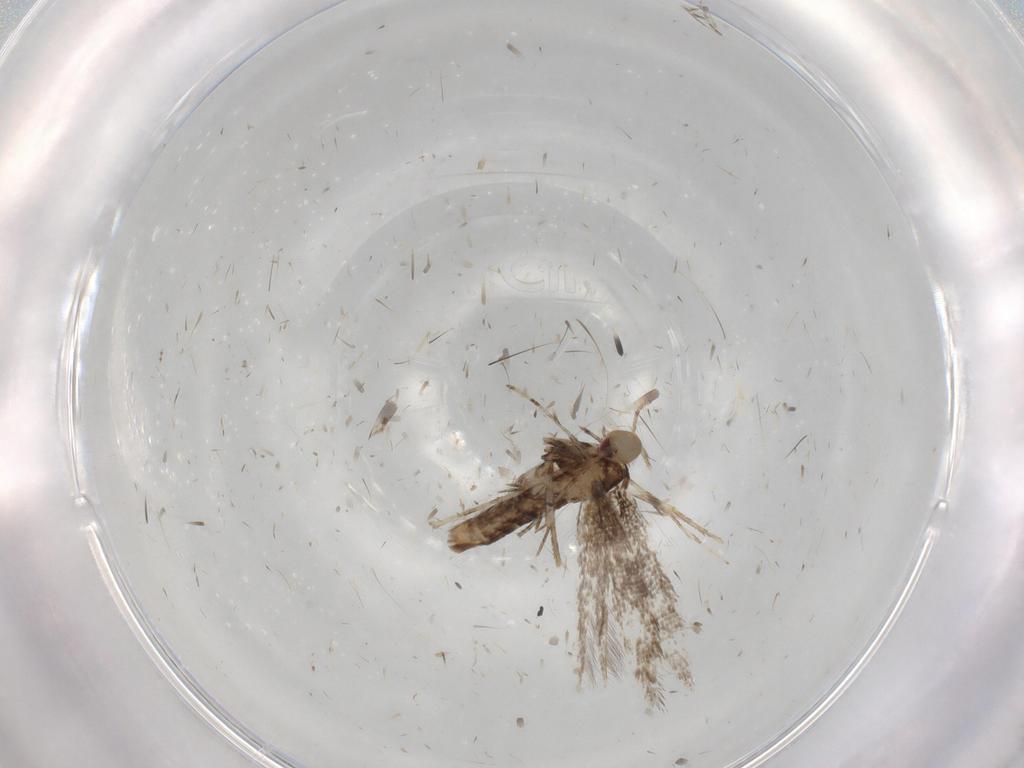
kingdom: Animalia
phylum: Arthropoda
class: Insecta
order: Lepidoptera
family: Gracillariidae
